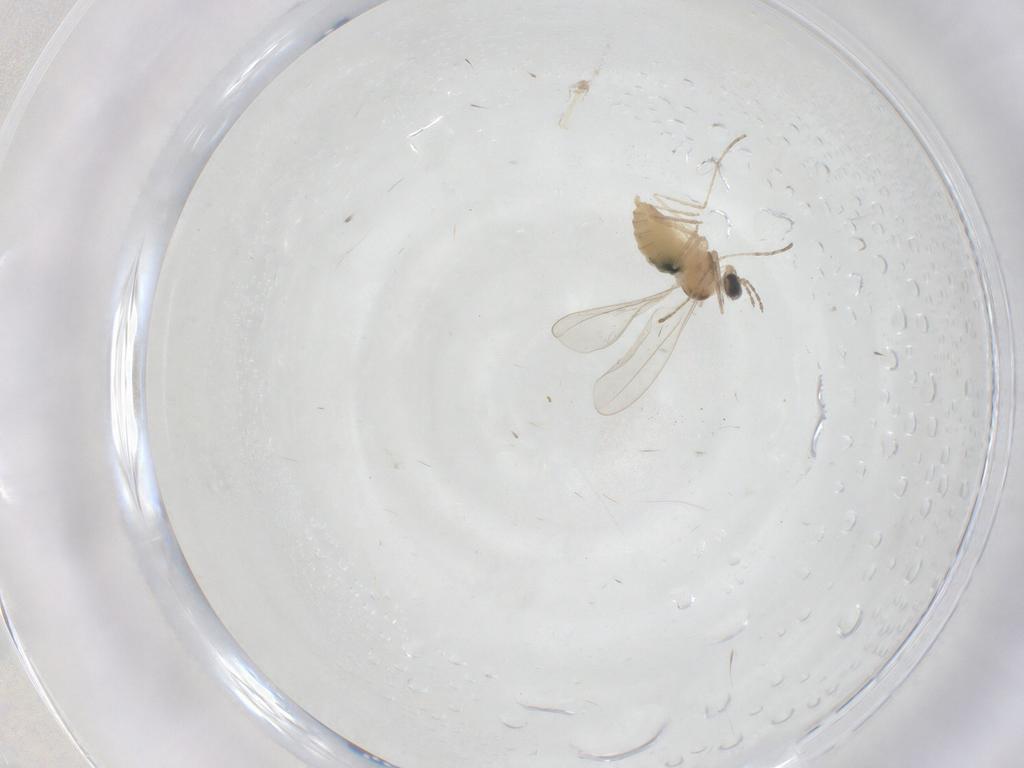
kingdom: Animalia
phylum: Arthropoda
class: Insecta
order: Diptera
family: Cecidomyiidae
